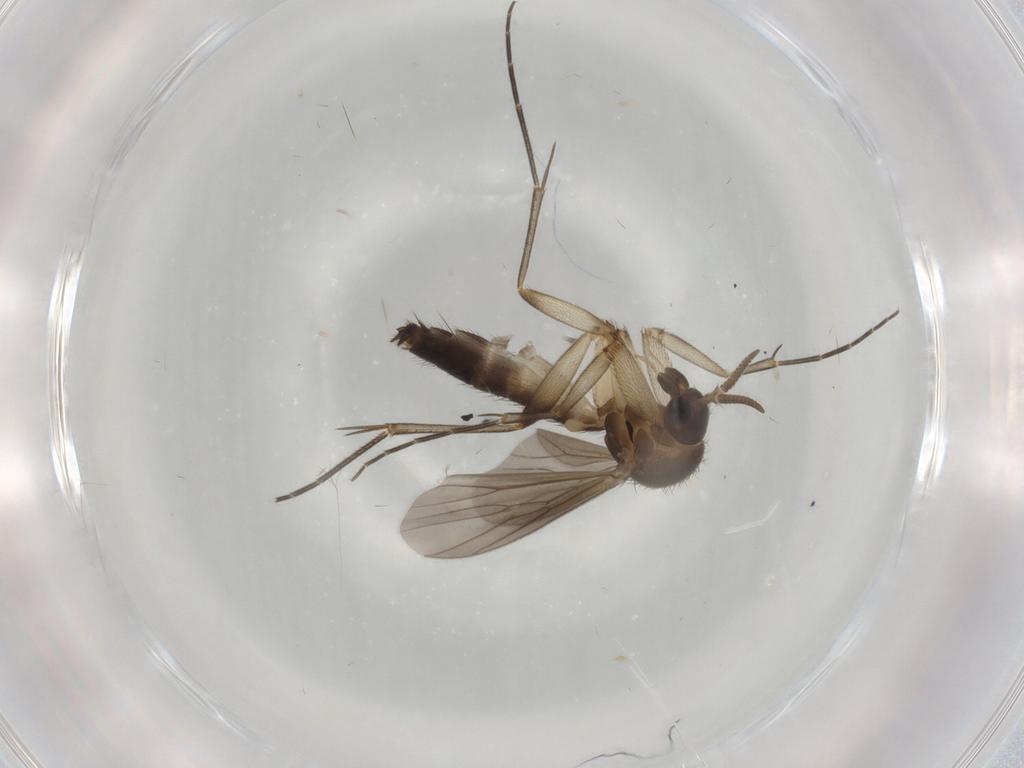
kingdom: Animalia
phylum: Arthropoda
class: Insecta
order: Diptera
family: Mycetophilidae
